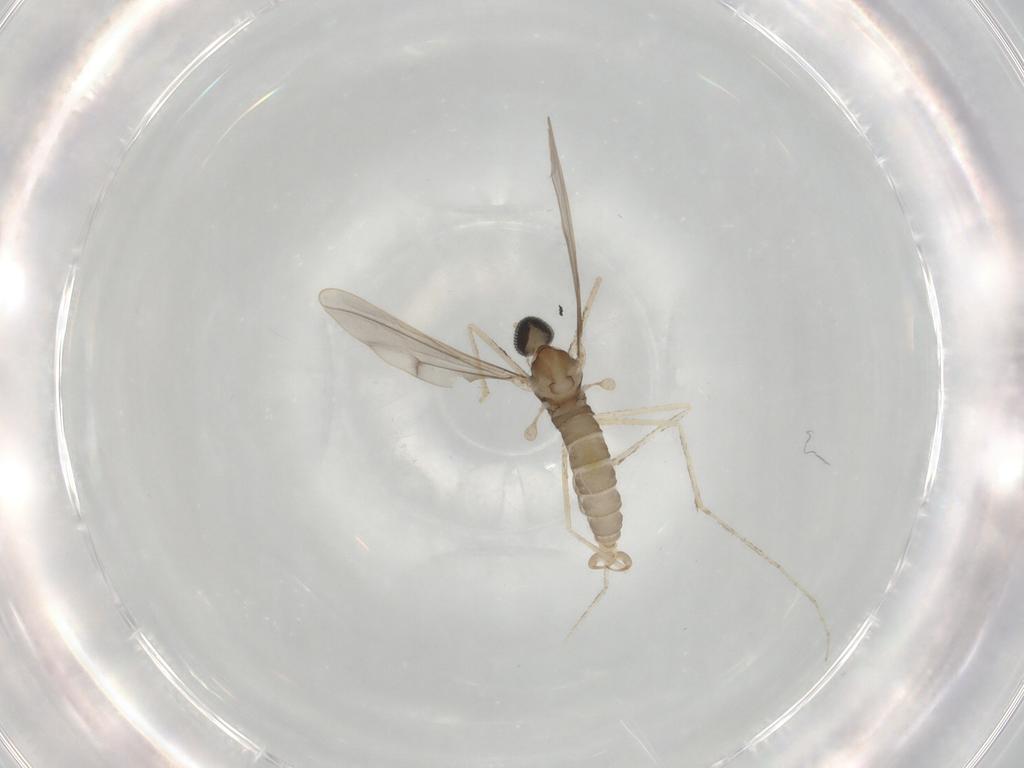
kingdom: Animalia
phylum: Arthropoda
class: Insecta
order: Diptera
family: Cecidomyiidae
